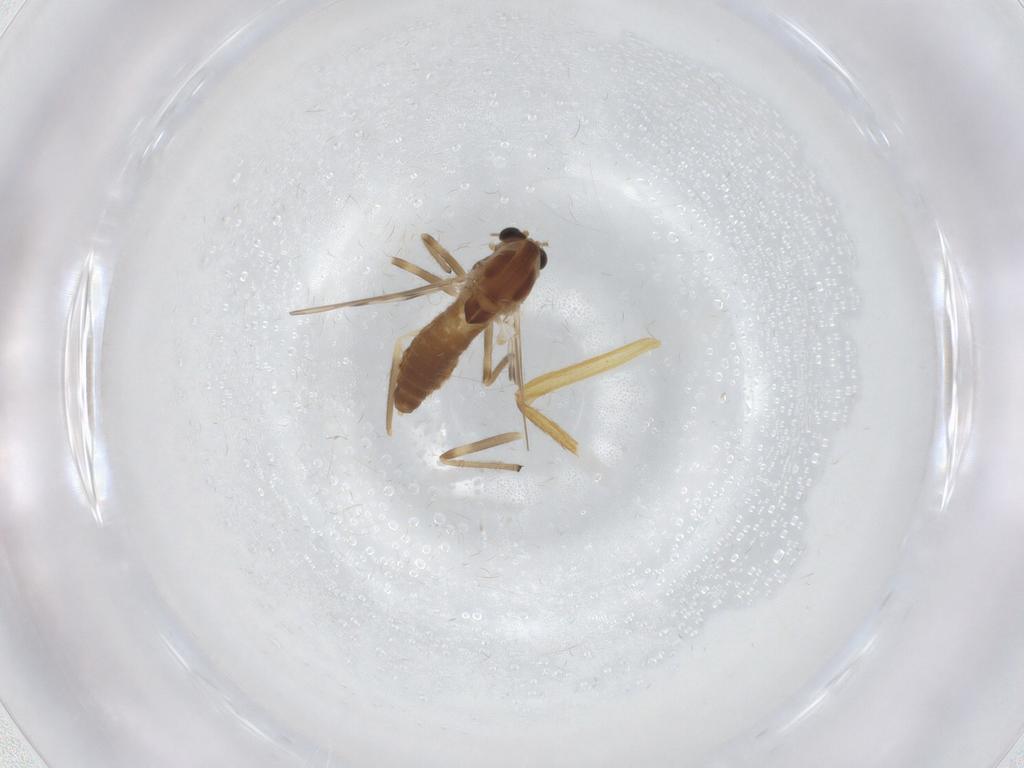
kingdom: Animalia
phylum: Arthropoda
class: Insecta
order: Diptera
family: Chironomidae
